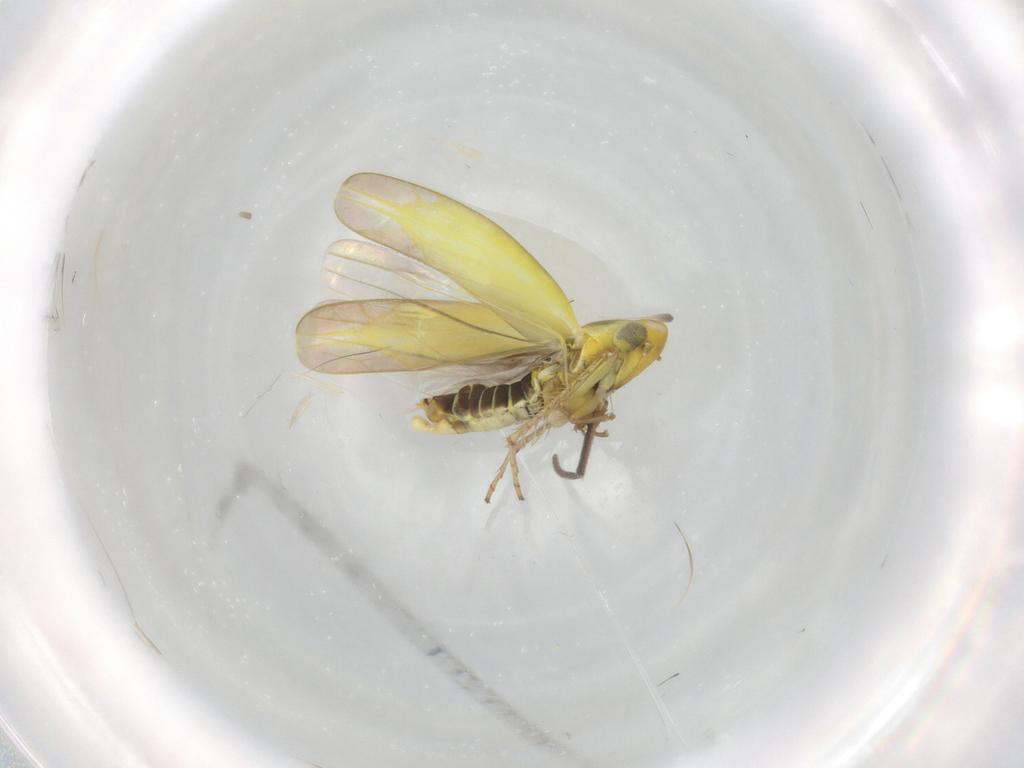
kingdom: Animalia
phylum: Arthropoda
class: Insecta
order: Hemiptera
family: Cicadellidae
